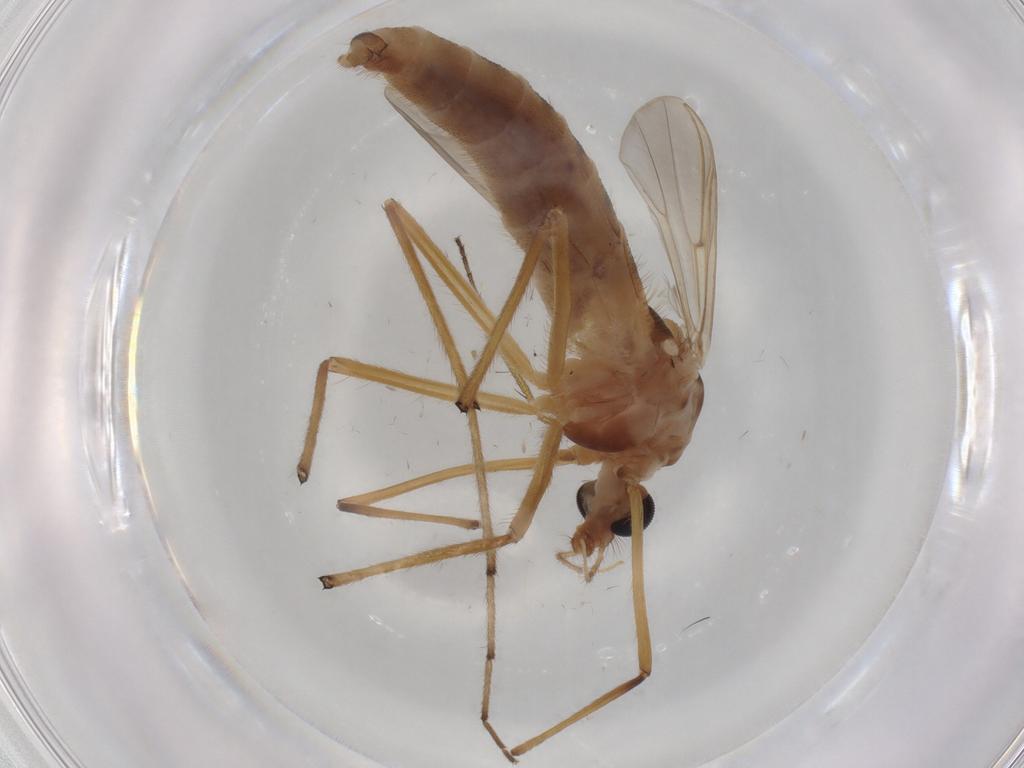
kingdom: Animalia
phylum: Arthropoda
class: Insecta
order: Diptera
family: Dolichopodidae
